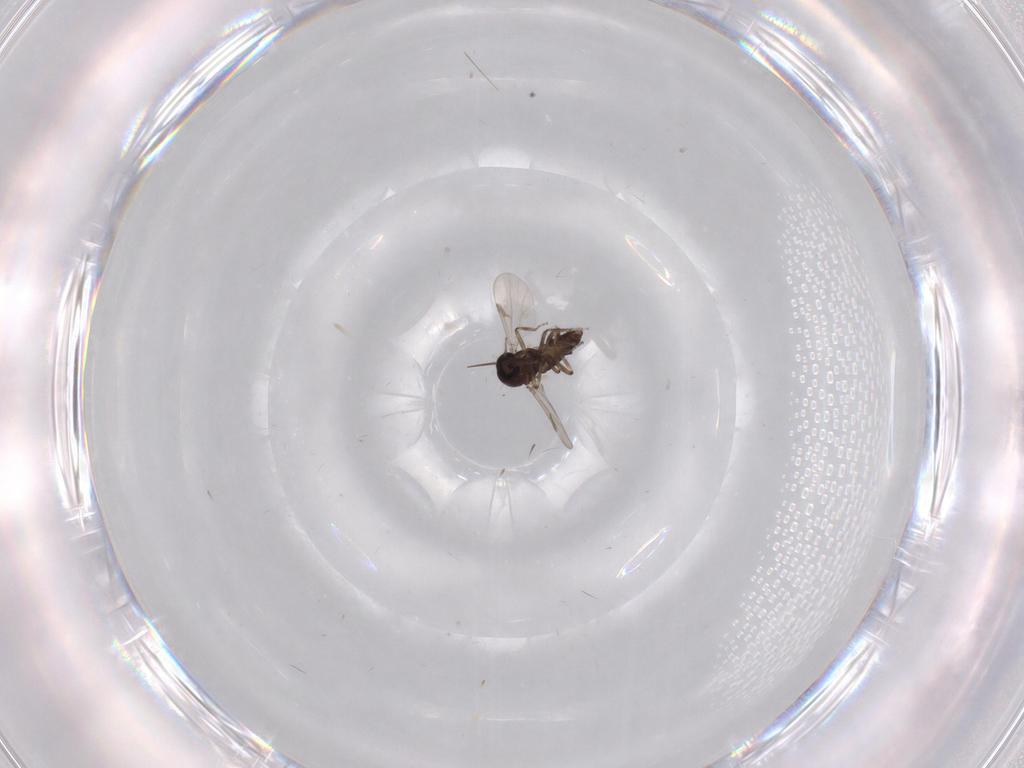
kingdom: Animalia
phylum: Arthropoda
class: Insecta
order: Diptera
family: Ceratopogonidae
